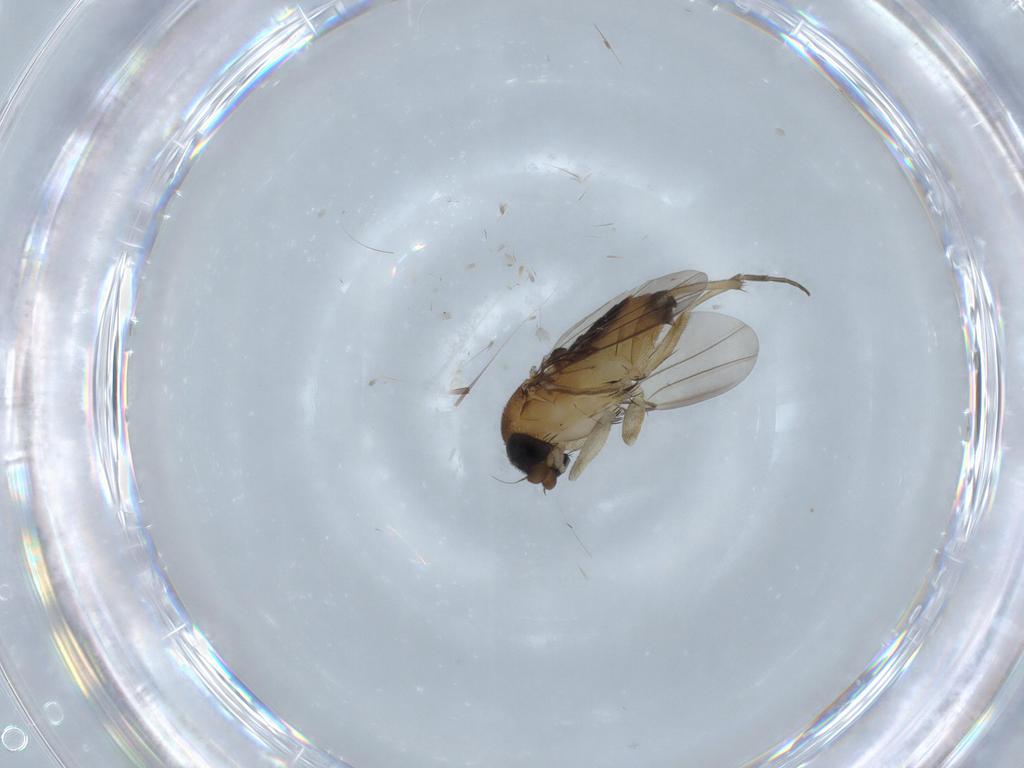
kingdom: Animalia
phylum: Arthropoda
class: Insecta
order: Diptera
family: Phoridae
